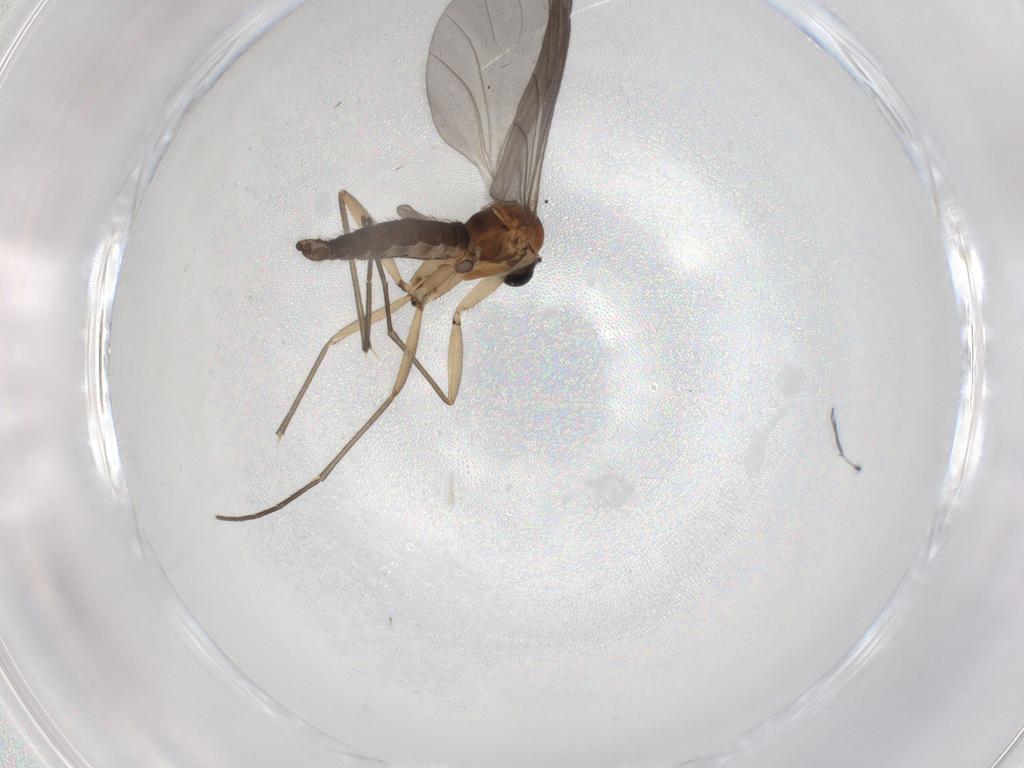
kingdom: Animalia
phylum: Arthropoda
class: Insecta
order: Diptera
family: Sciaridae
